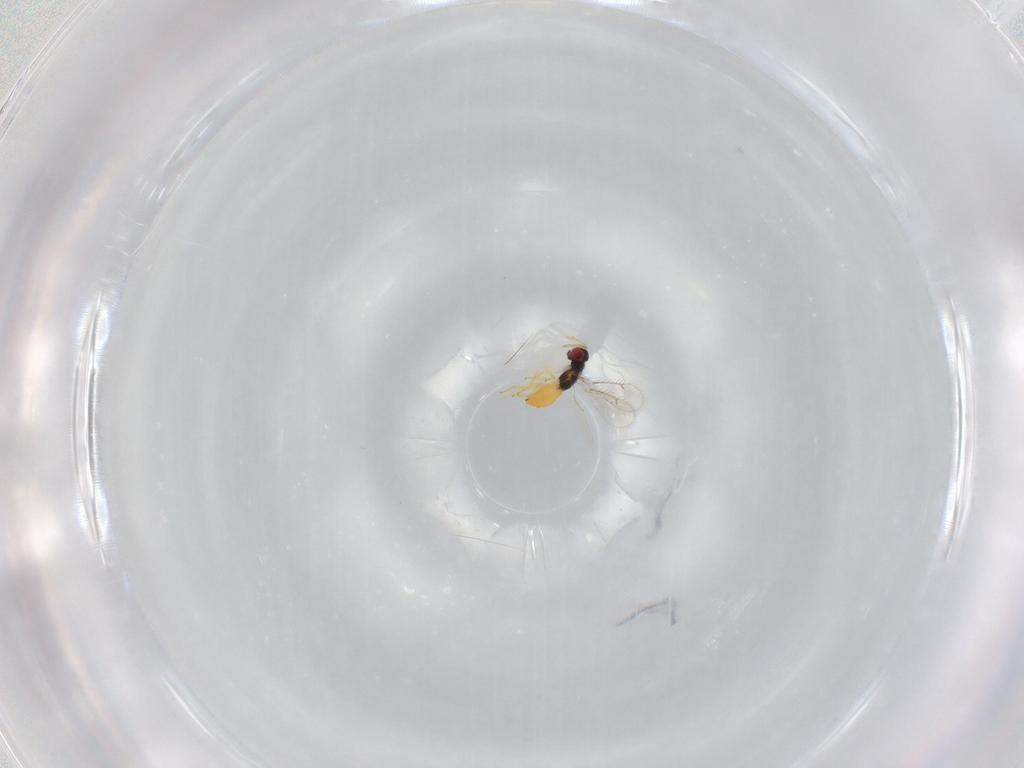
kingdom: Animalia
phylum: Arthropoda
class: Insecta
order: Hymenoptera
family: Eulophidae
